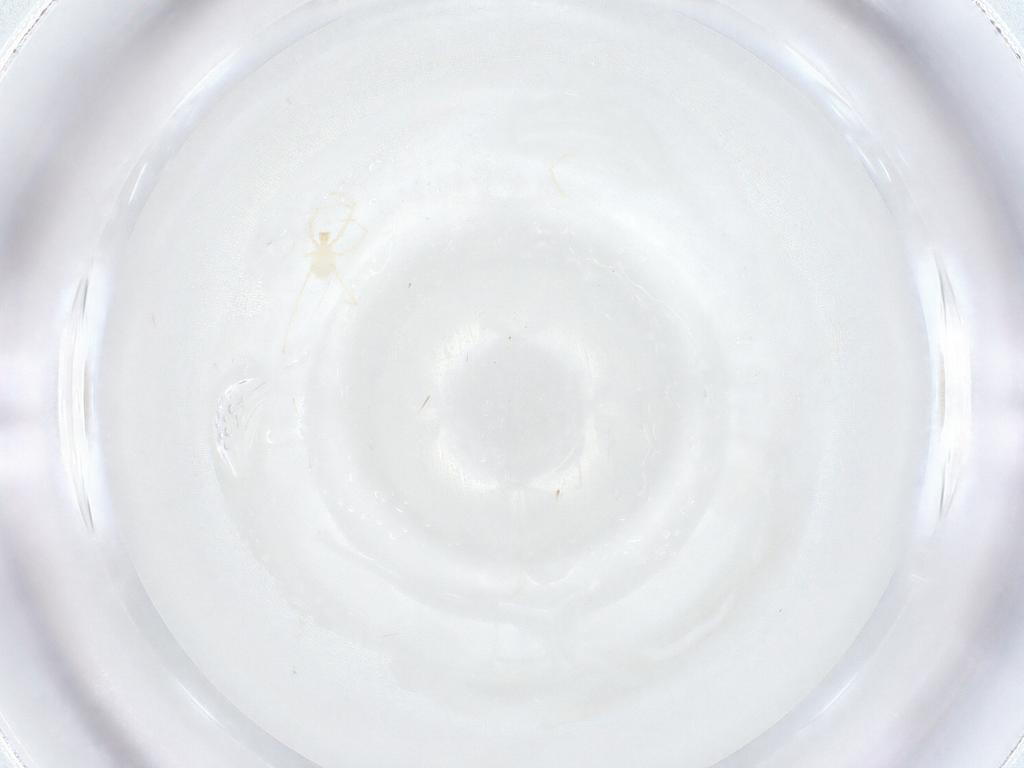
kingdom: Animalia
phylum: Arthropoda
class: Arachnida
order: Trombidiformes
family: Erythraeidae
